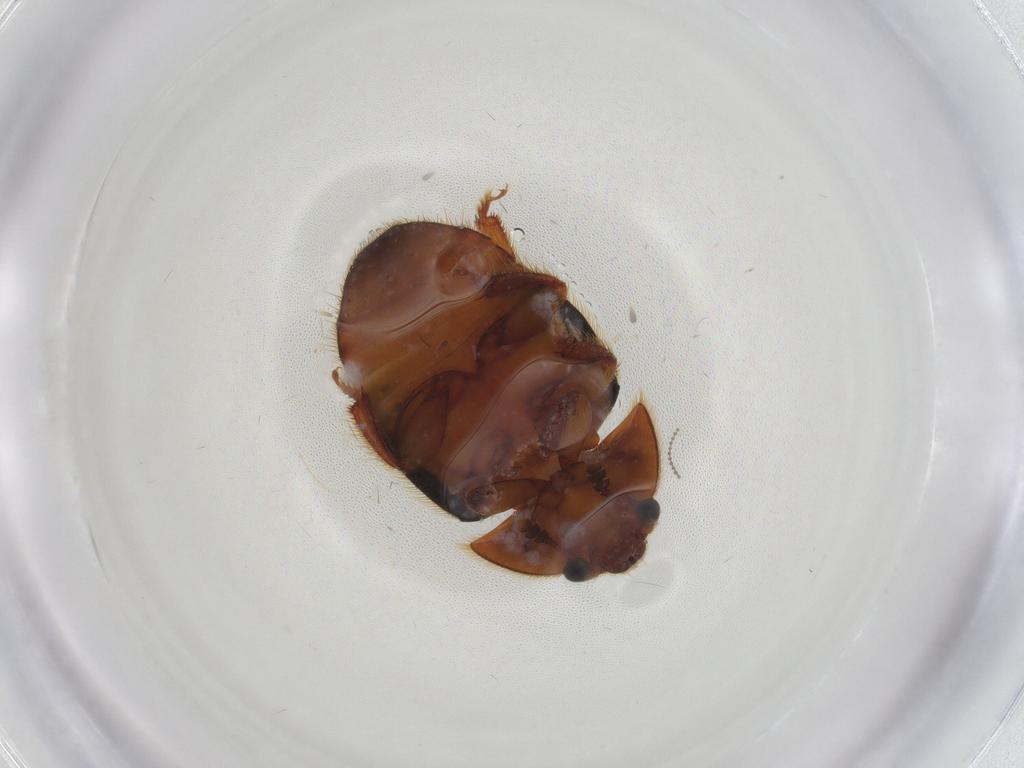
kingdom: Animalia
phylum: Arthropoda
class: Insecta
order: Coleoptera
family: Nitidulidae
